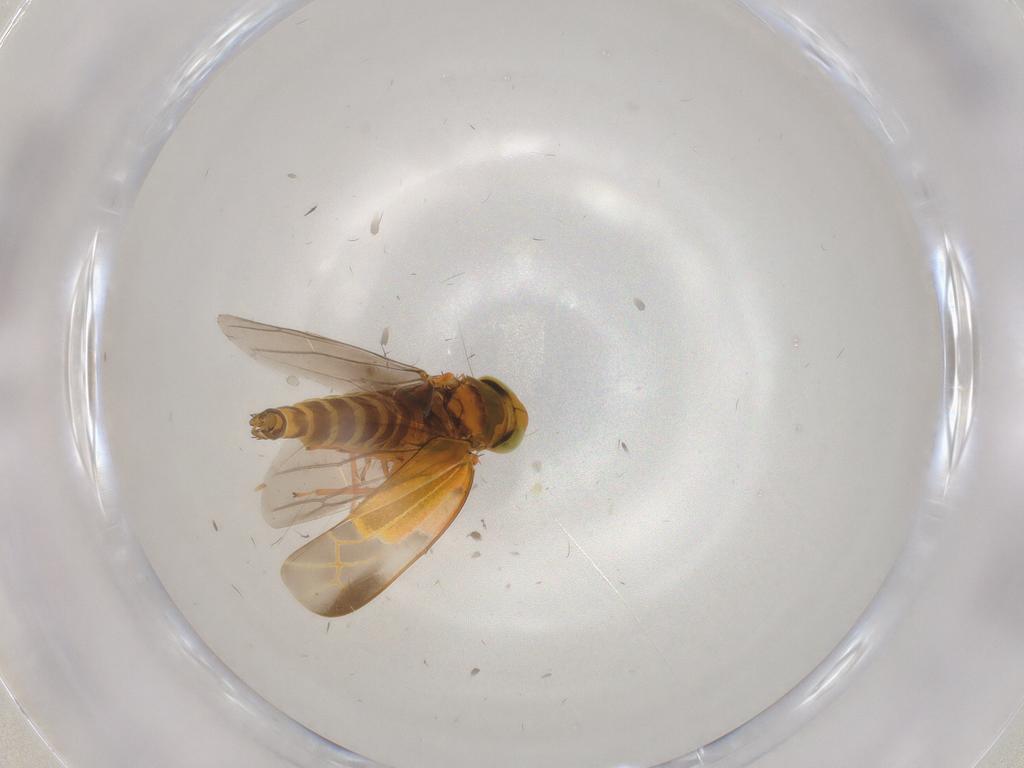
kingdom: Animalia
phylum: Arthropoda
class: Insecta
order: Hemiptera
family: Cicadellidae
